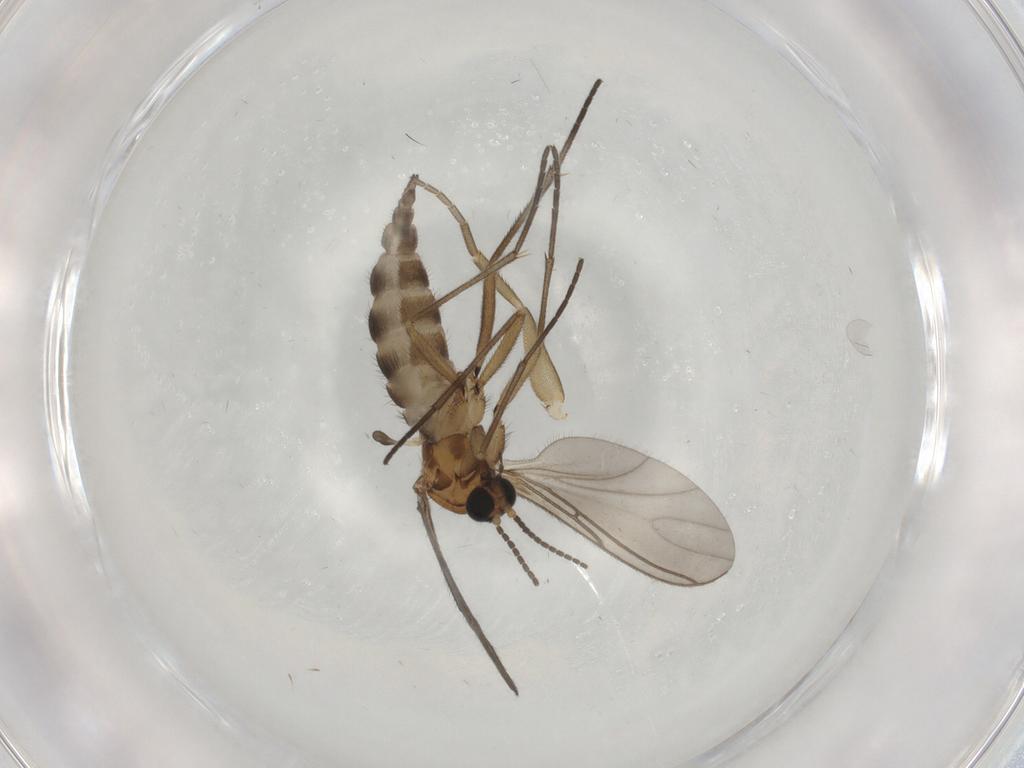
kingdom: Animalia
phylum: Arthropoda
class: Insecta
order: Diptera
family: Sciaridae
